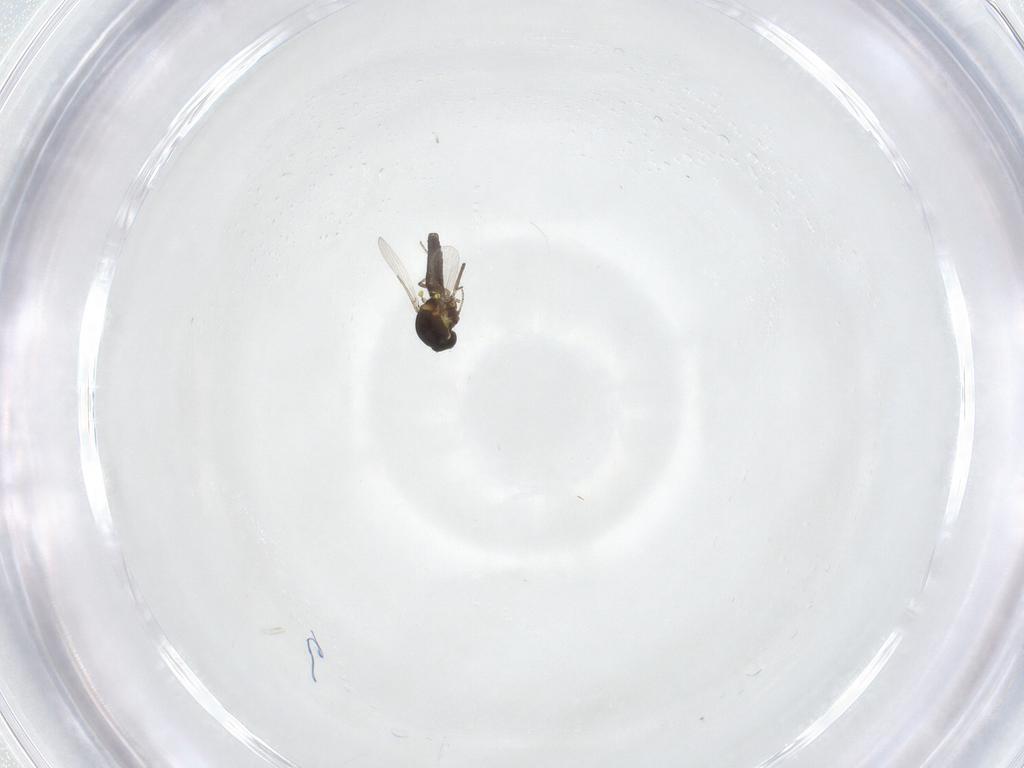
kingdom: Animalia
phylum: Arthropoda
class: Insecta
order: Diptera
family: Ceratopogonidae
